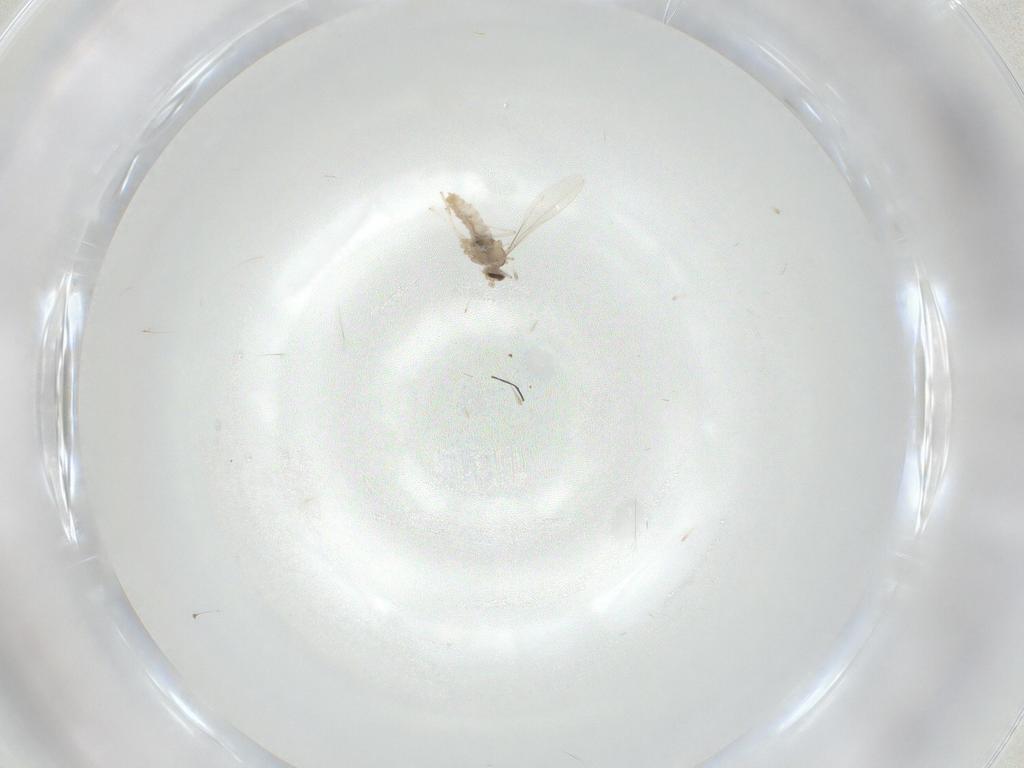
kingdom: Animalia
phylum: Arthropoda
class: Insecta
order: Diptera
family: Cecidomyiidae
